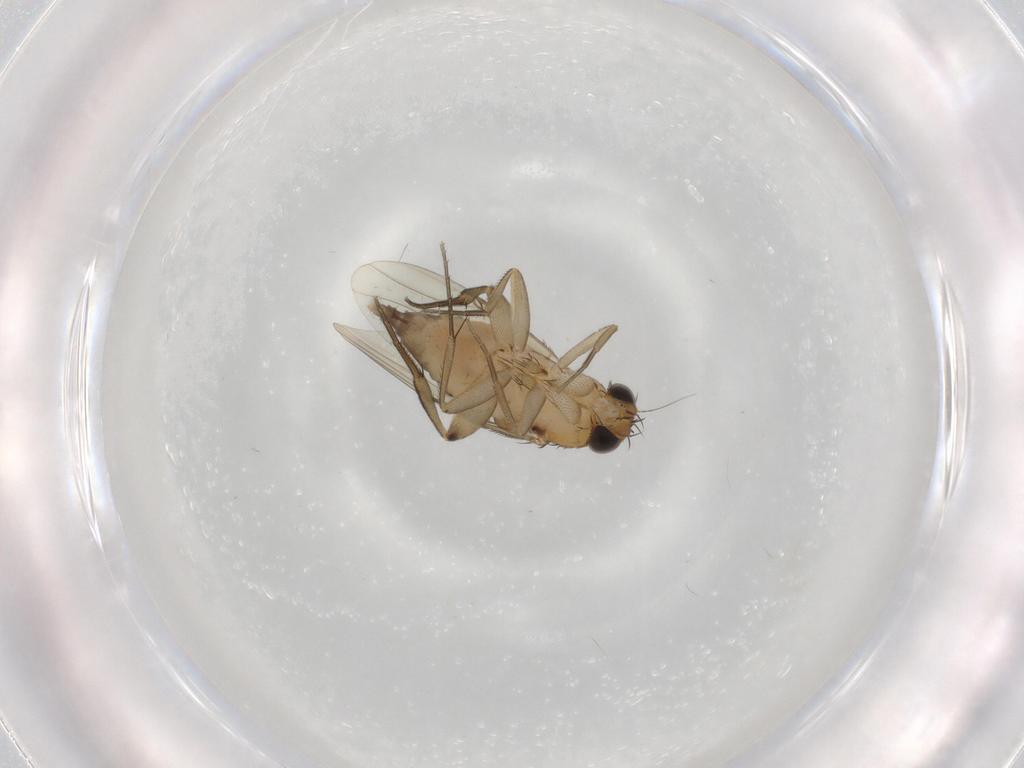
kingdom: Animalia
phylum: Arthropoda
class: Insecta
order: Diptera
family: Phoridae
